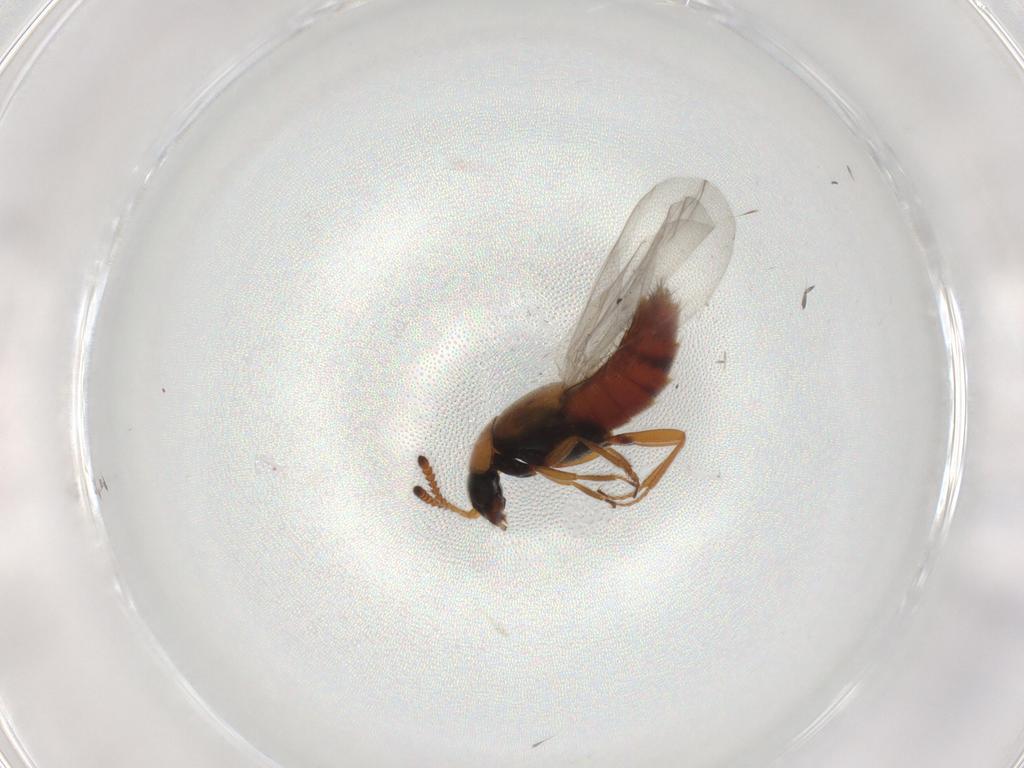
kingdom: Animalia
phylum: Arthropoda
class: Insecta
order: Coleoptera
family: Staphylinidae
